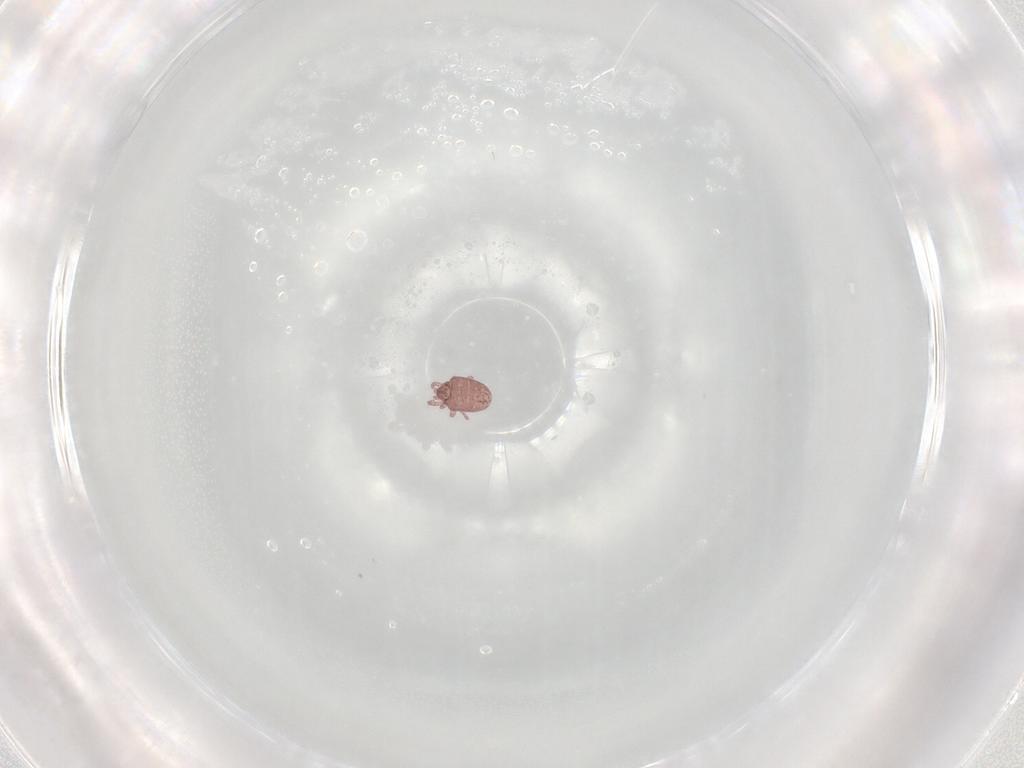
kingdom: Animalia
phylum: Arthropoda
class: Arachnida
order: Sarcoptiformes
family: Alycidae
